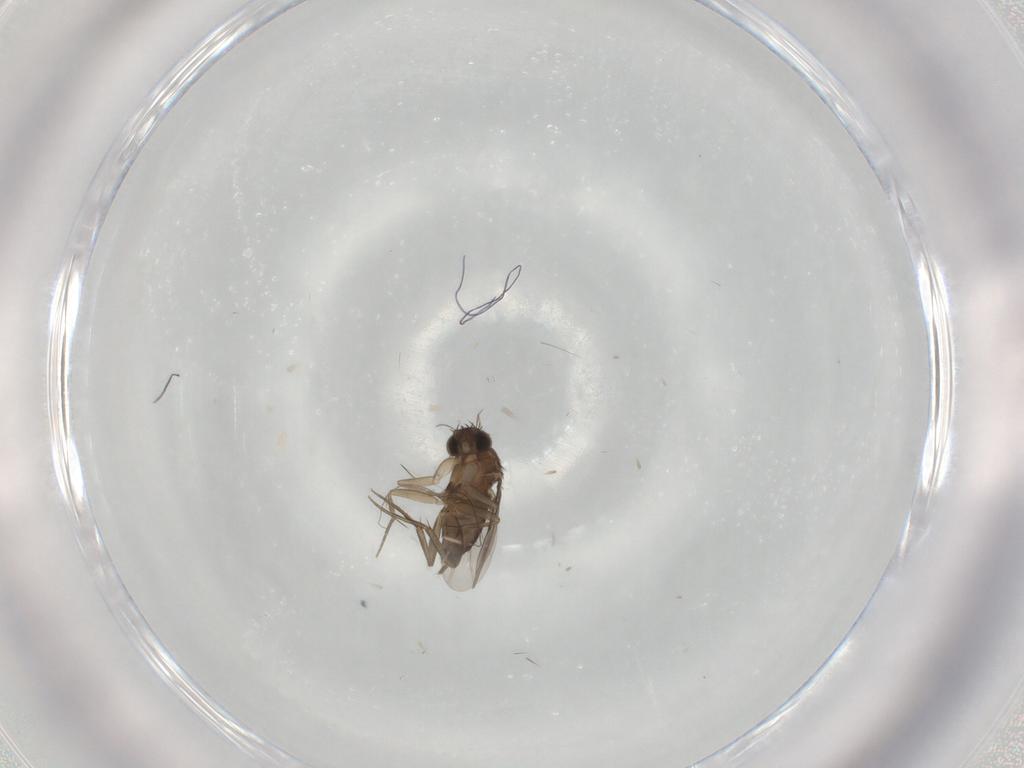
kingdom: Animalia
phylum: Arthropoda
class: Insecta
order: Diptera
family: Phoridae
